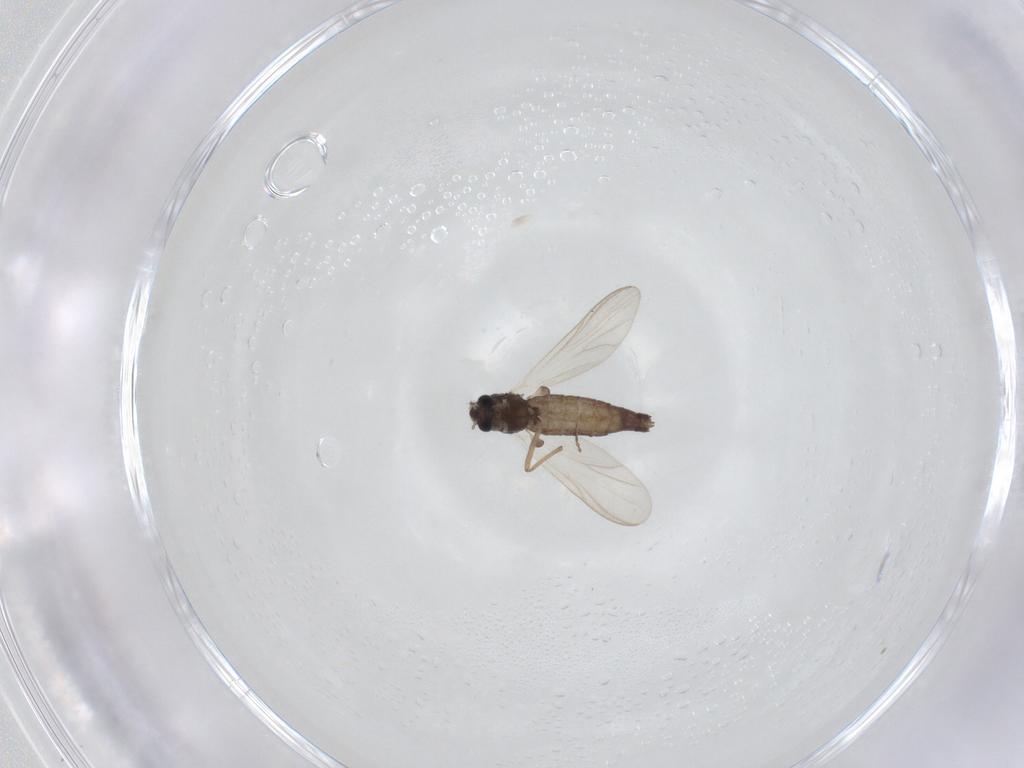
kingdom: Animalia
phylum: Arthropoda
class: Insecta
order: Diptera
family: Chironomidae
